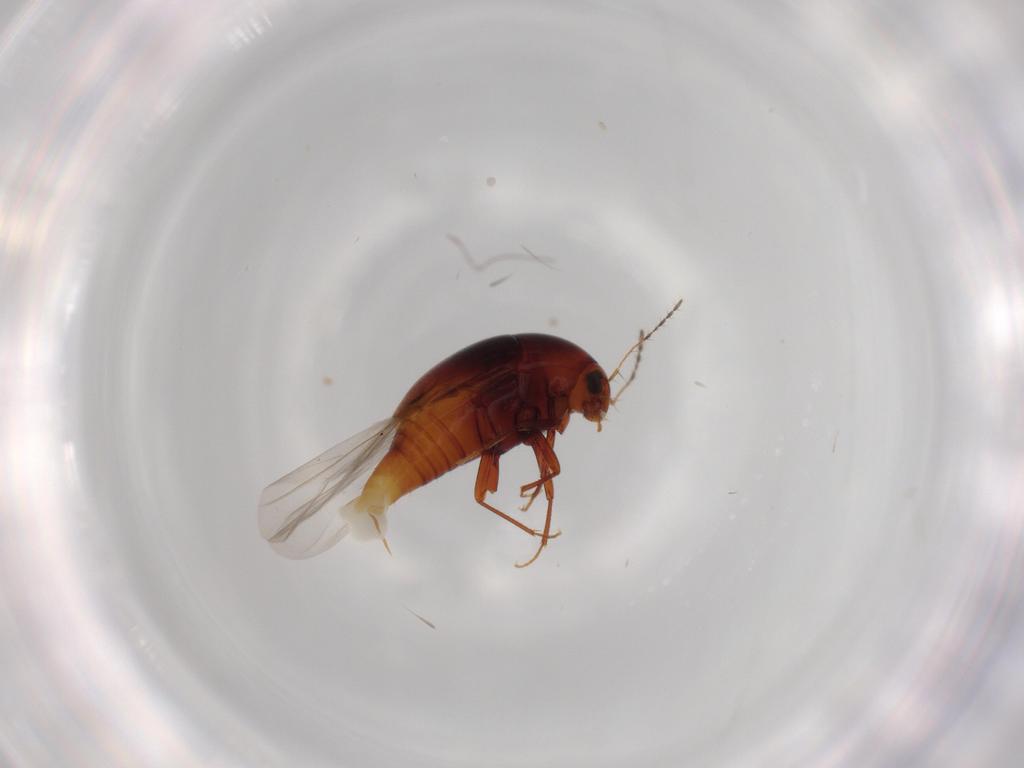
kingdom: Animalia
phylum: Arthropoda
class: Insecta
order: Coleoptera
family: Staphylinidae
